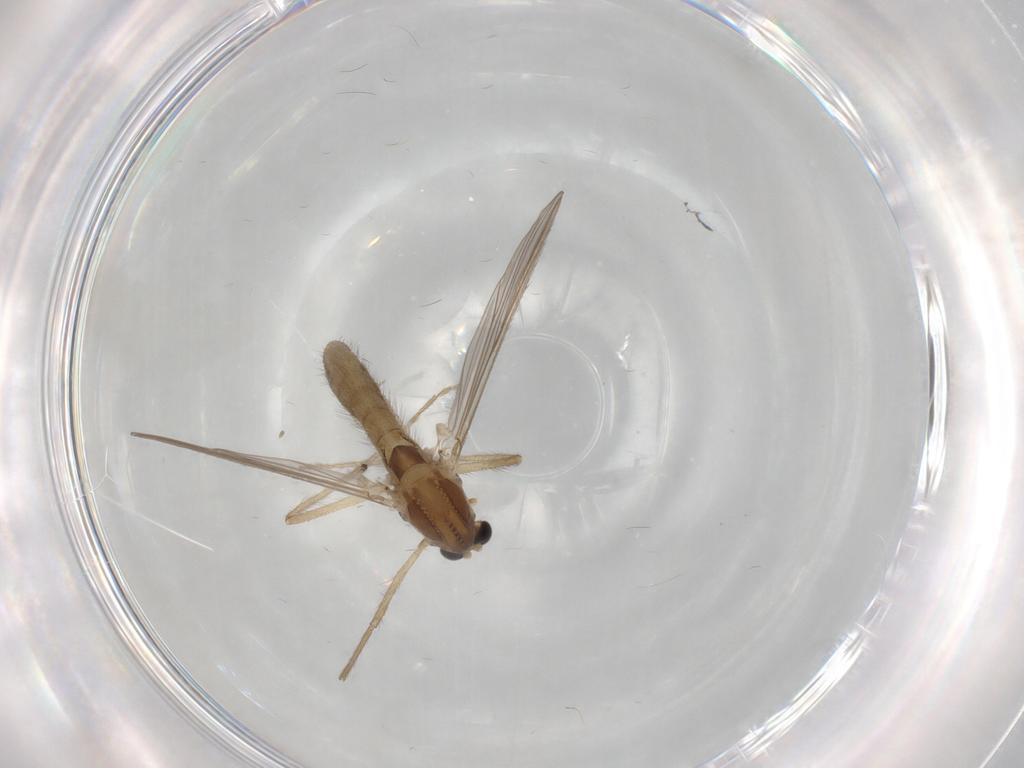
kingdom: Animalia
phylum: Arthropoda
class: Insecta
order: Diptera
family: Chironomidae
